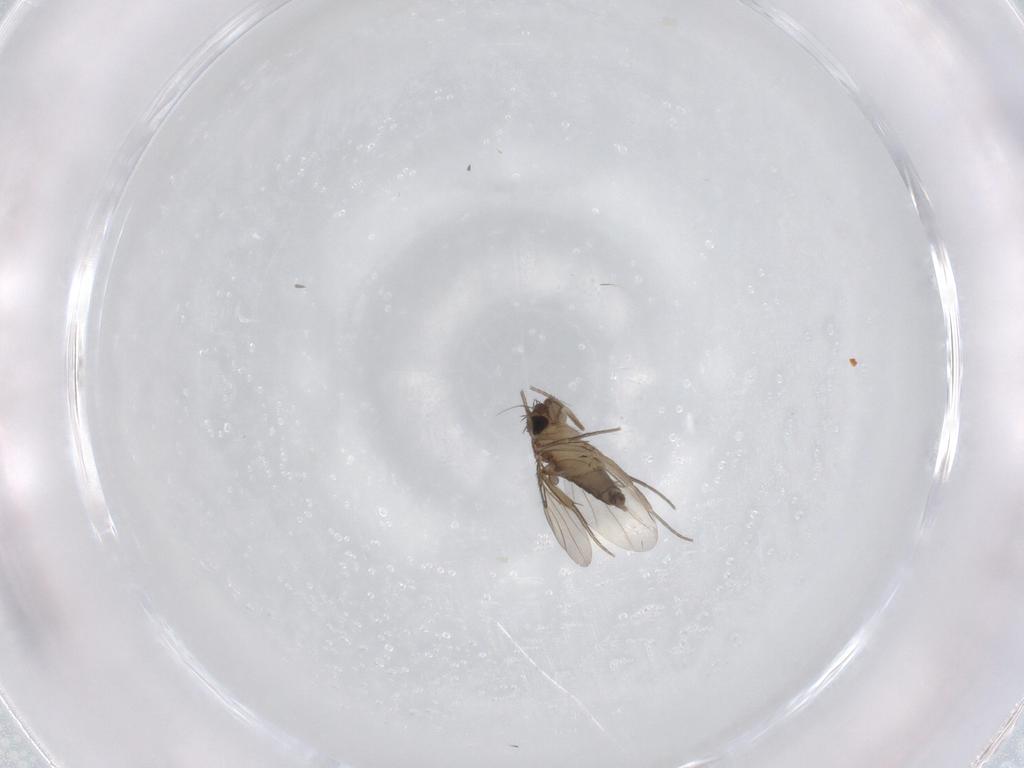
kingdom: Animalia
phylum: Arthropoda
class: Insecta
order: Diptera
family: Phoridae
